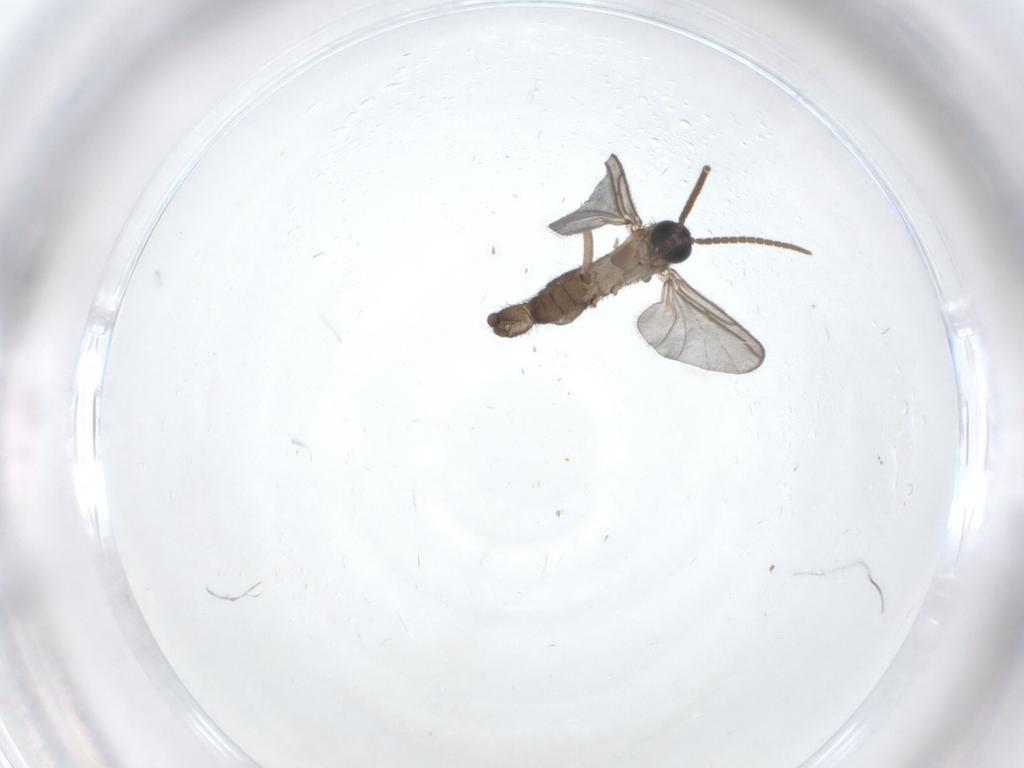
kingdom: Animalia
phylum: Arthropoda
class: Insecta
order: Diptera
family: Cecidomyiidae
